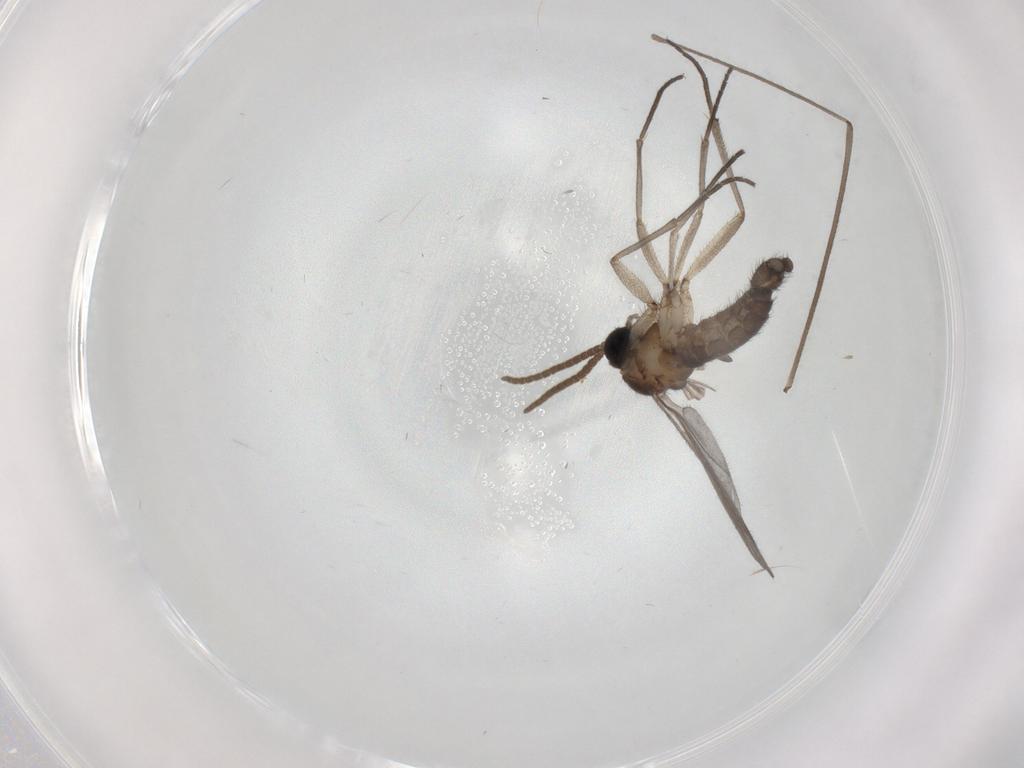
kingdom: Animalia
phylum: Arthropoda
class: Insecta
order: Diptera
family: Limoniidae
